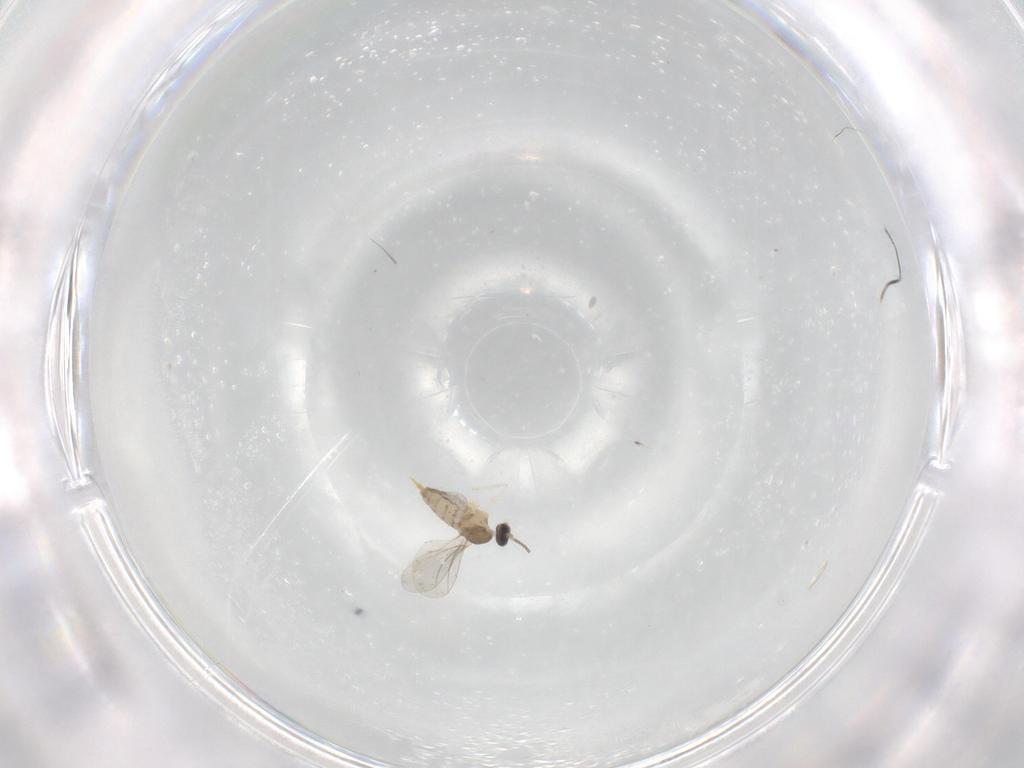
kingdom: Animalia
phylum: Arthropoda
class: Insecta
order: Diptera
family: Cecidomyiidae
